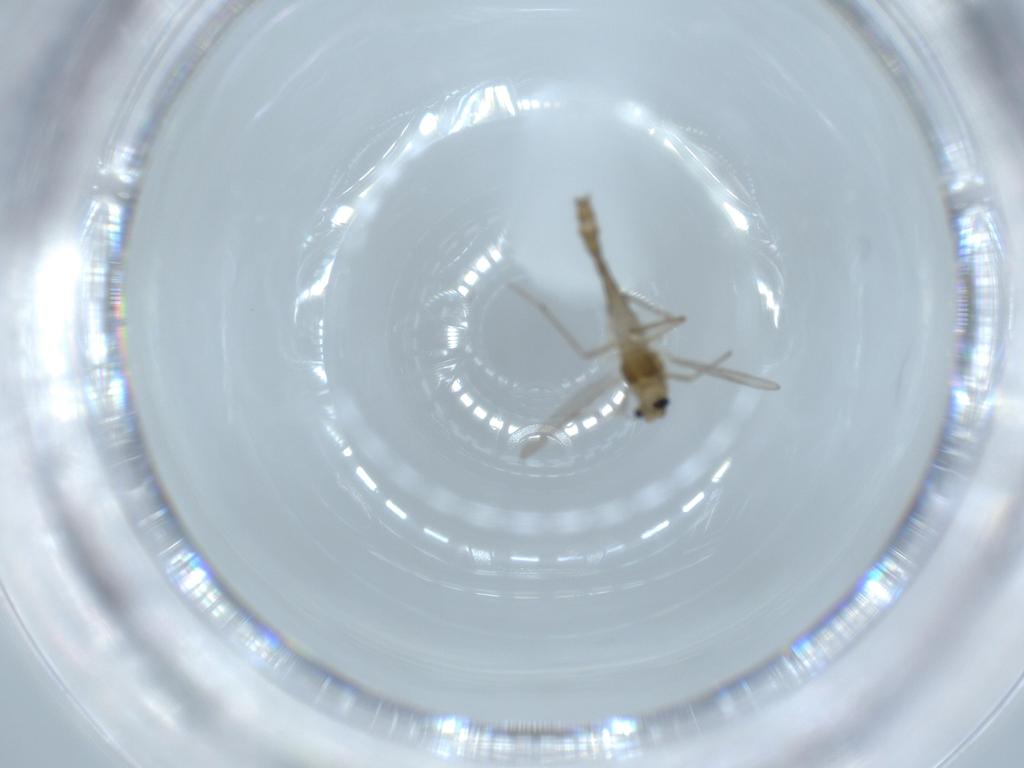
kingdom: Animalia
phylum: Arthropoda
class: Insecta
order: Diptera
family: Chironomidae
